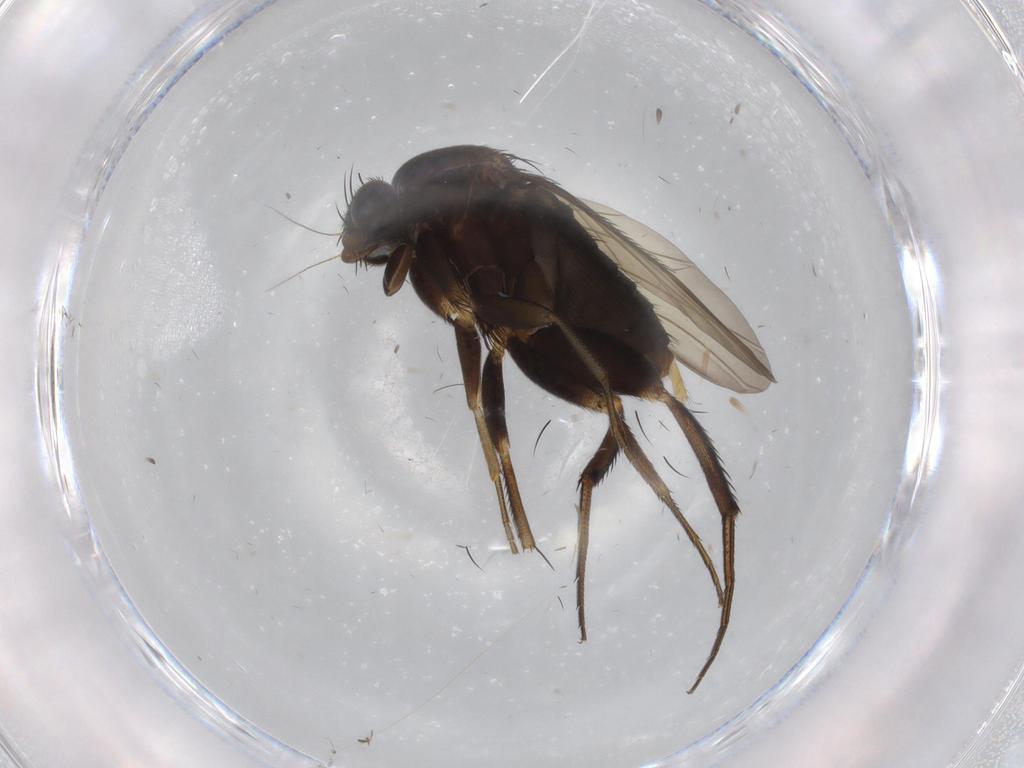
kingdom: Animalia
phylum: Arthropoda
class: Insecta
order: Diptera
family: Phoridae
